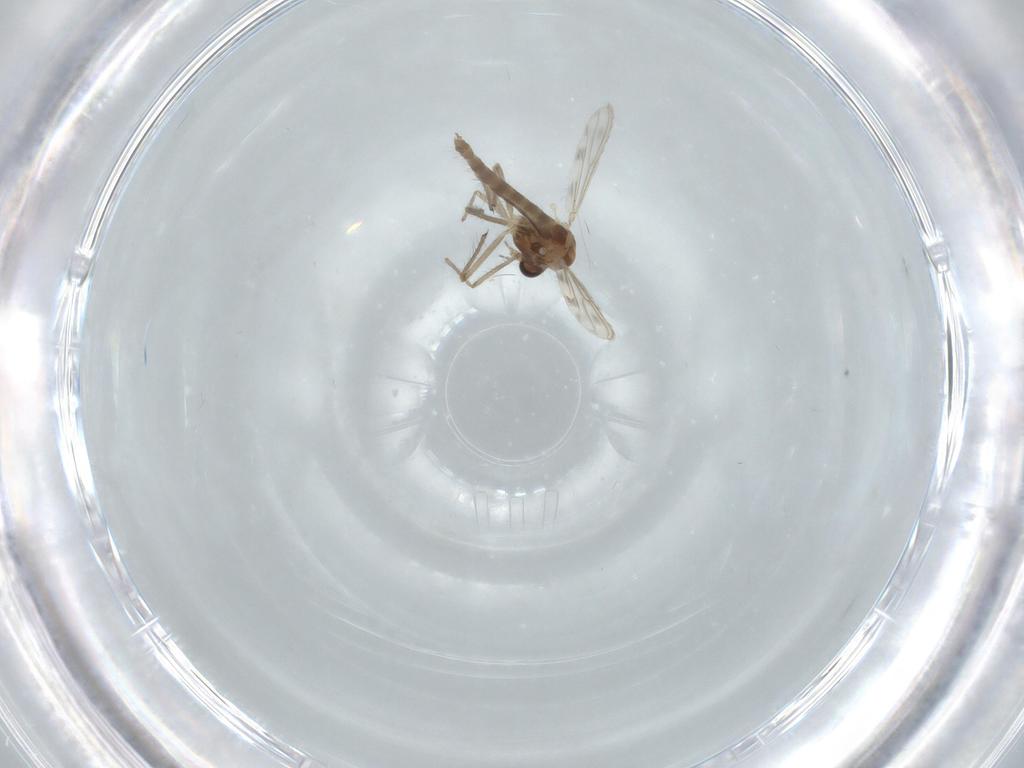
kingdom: Animalia
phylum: Arthropoda
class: Insecta
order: Diptera
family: Chironomidae
